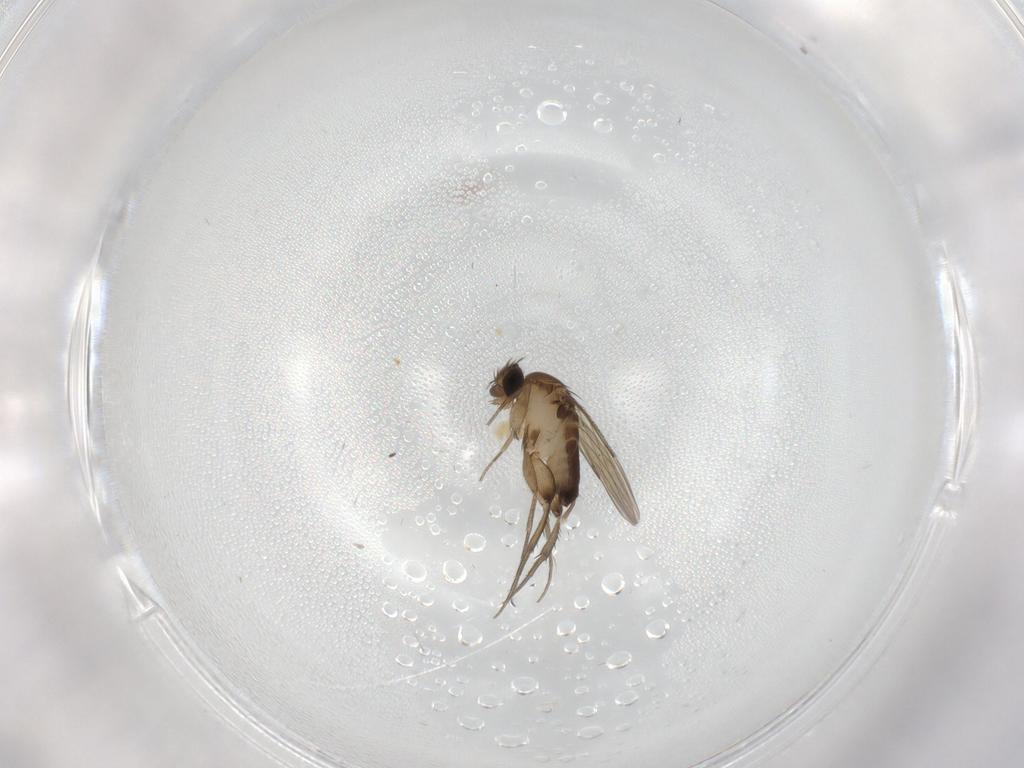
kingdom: Animalia
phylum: Arthropoda
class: Insecta
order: Diptera
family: Phoridae
